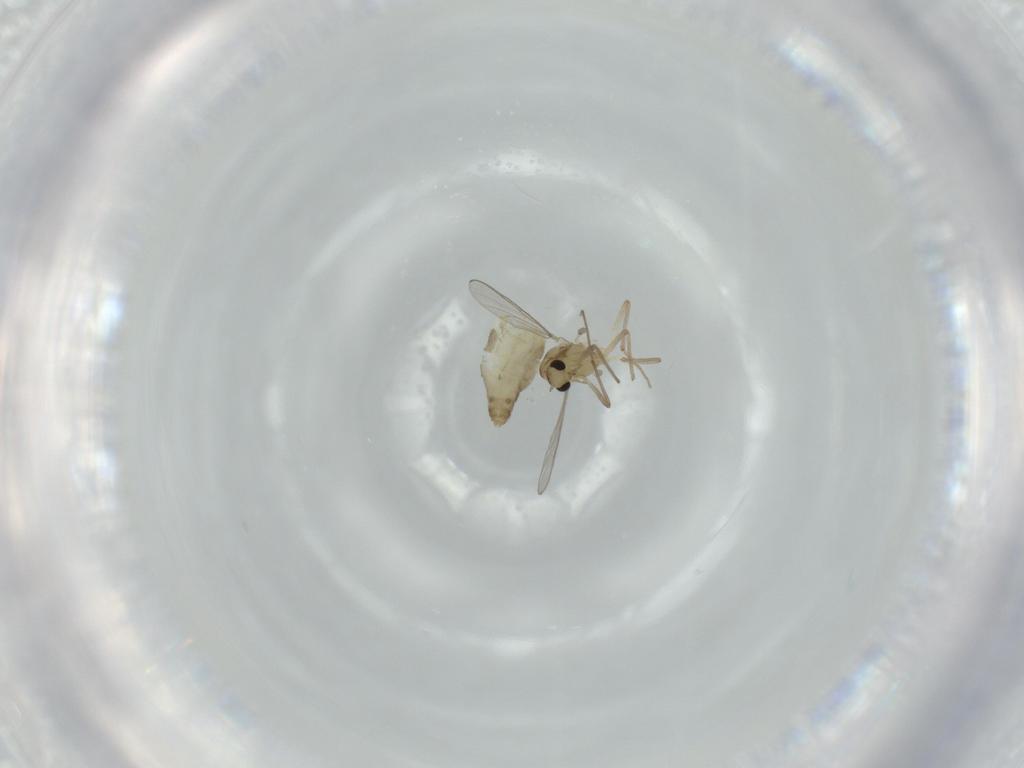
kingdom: Animalia
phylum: Arthropoda
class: Insecta
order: Diptera
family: Chironomidae
